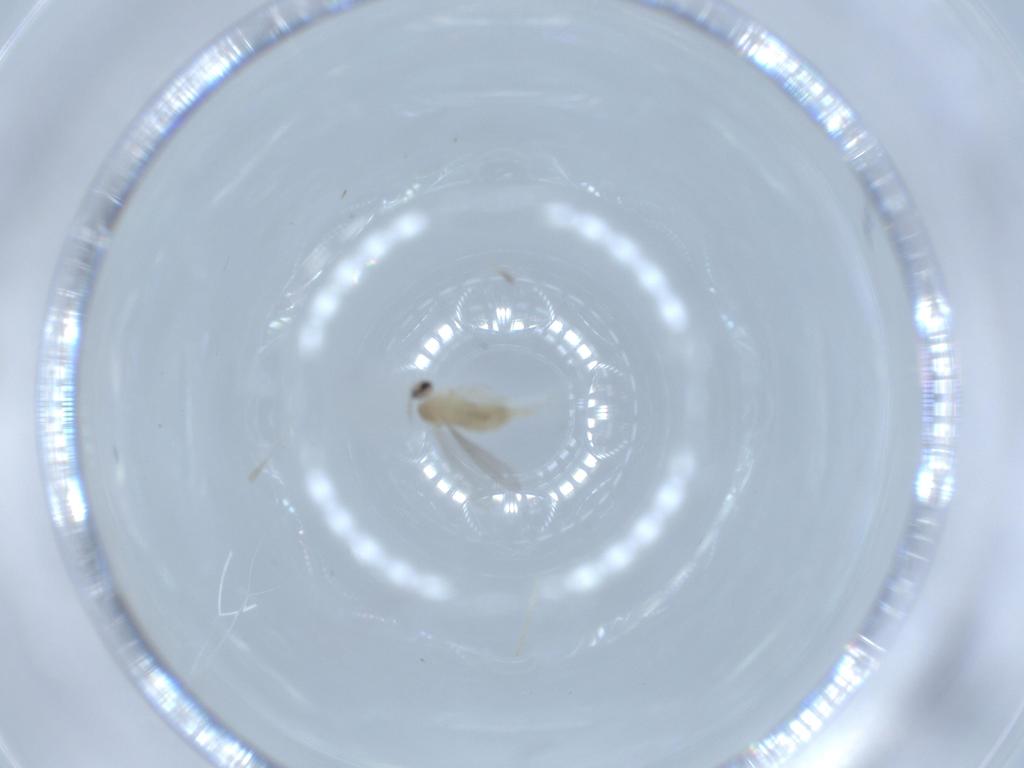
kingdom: Animalia
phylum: Arthropoda
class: Insecta
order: Diptera
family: Cecidomyiidae
